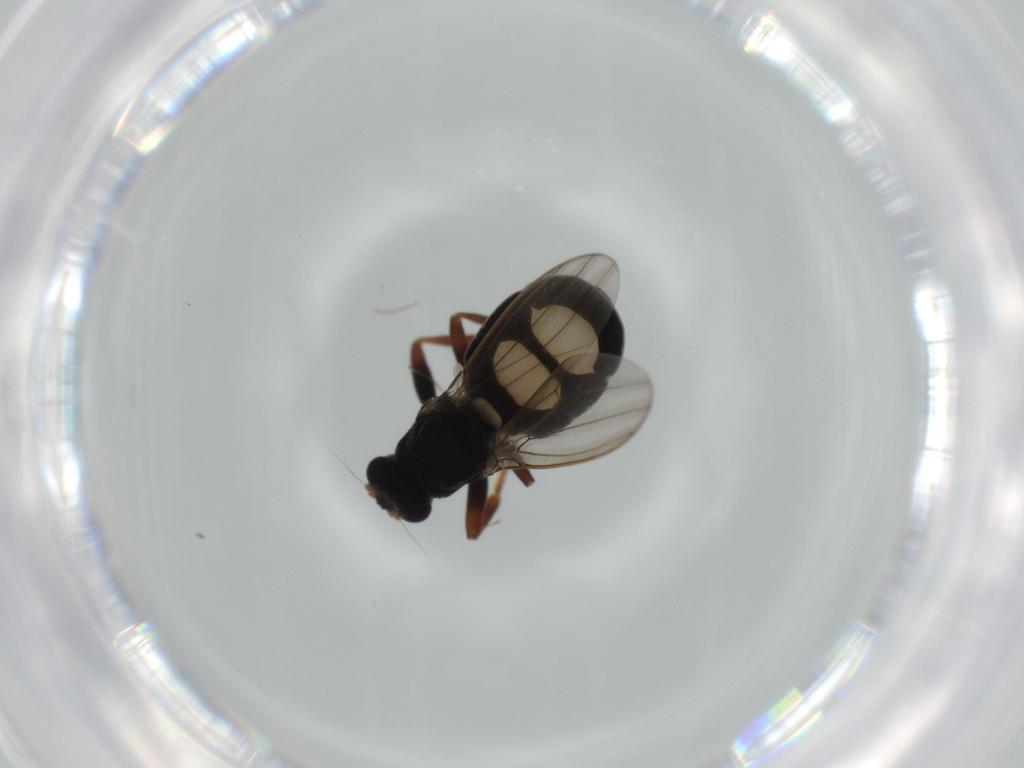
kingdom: Animalia
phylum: Arthropoda
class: Insecta
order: Diptera
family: Sphaeroceridae
